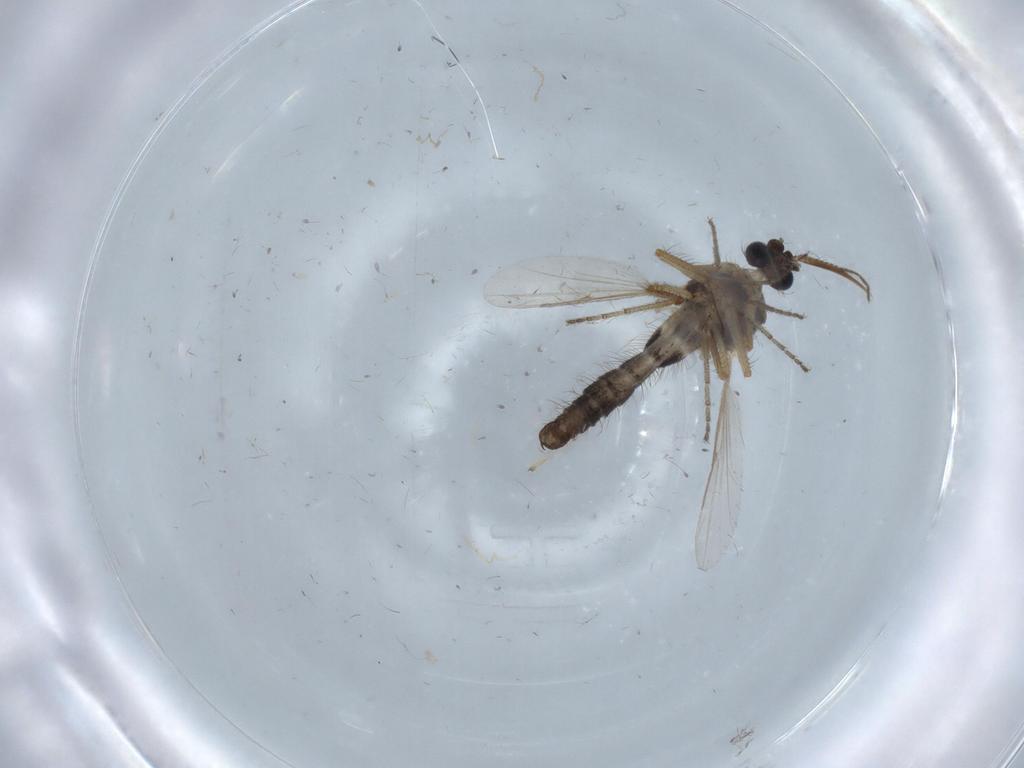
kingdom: Animalia
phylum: Arthropoda
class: Insecta
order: Diptera
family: Ceratopogonidae
